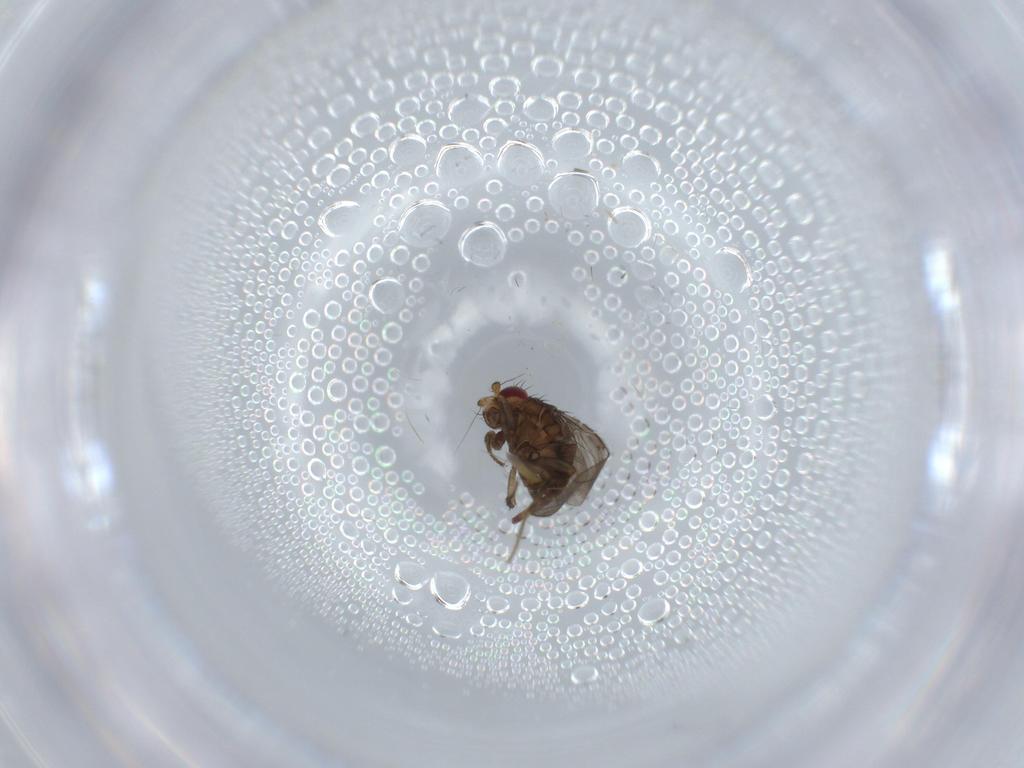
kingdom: Animalia
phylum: Arthropoda
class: Insecta
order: Diptera
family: Sphaeroceridae
